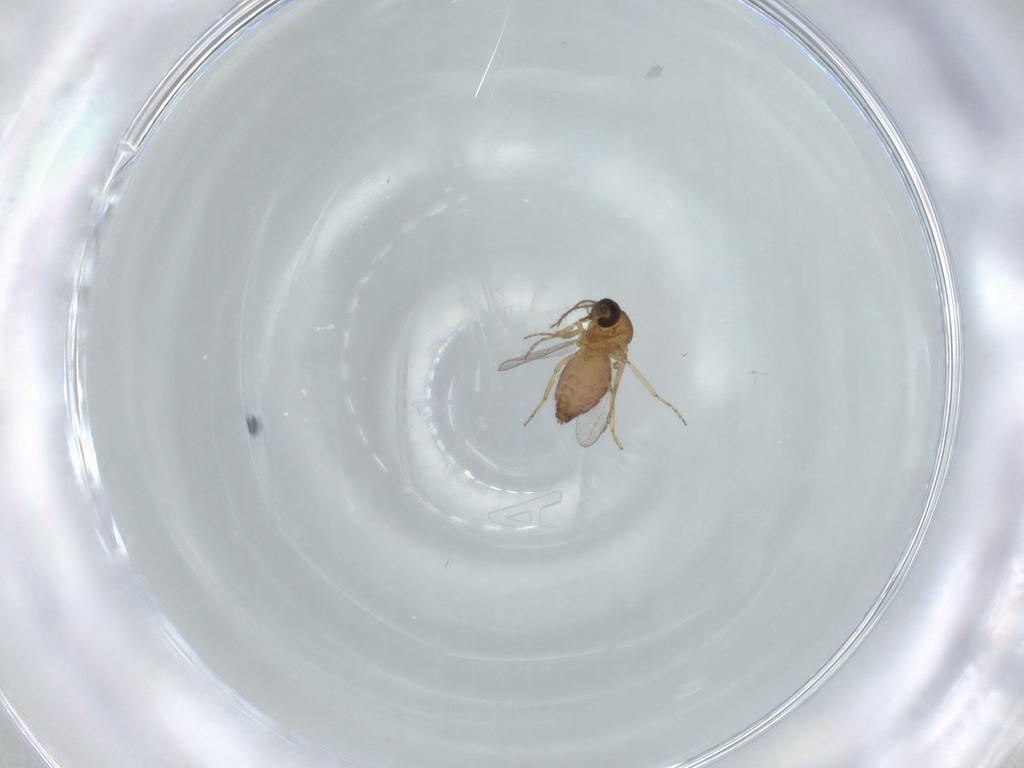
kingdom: Animalia
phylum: Arthropoda
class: Insecta
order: Diptera
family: Ceratopogonidae
